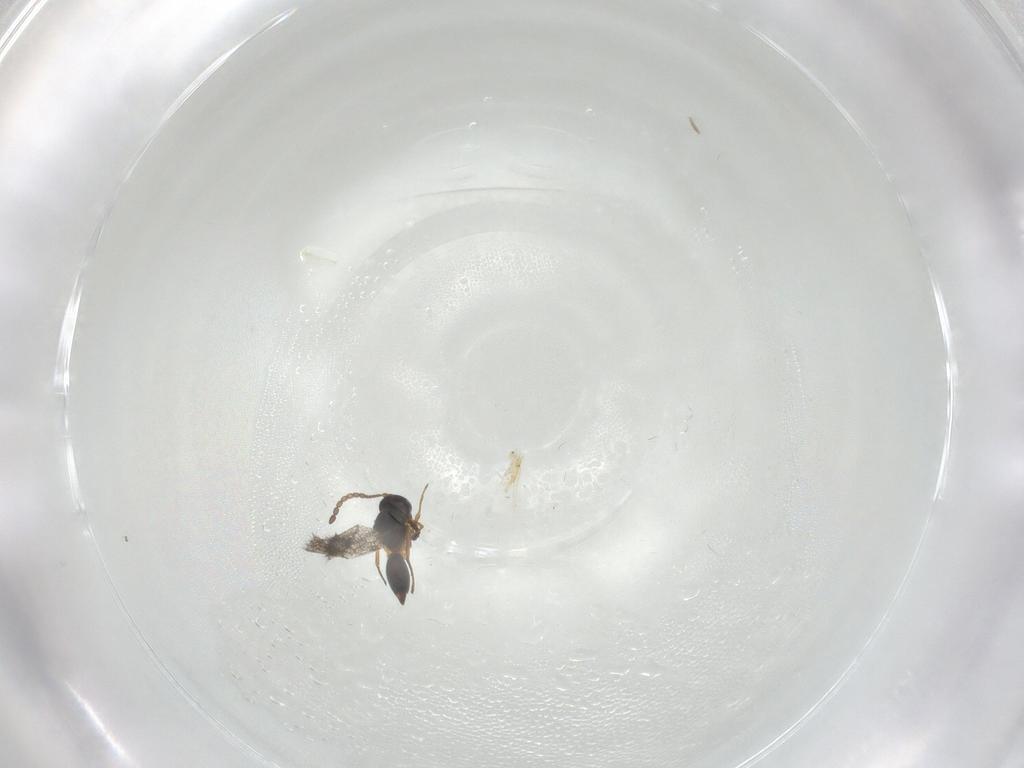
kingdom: Animalia
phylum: Arthropoda
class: Insecta
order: Hymenoptera
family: Figitidae
